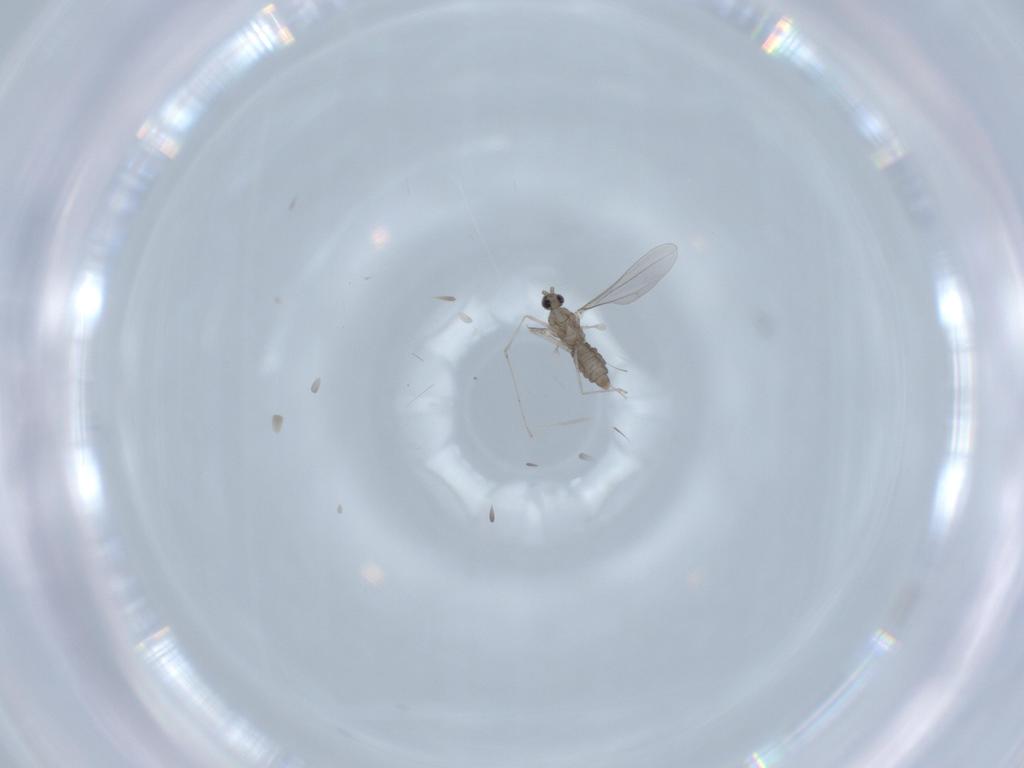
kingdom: Animalia
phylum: Arthropoda
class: Insecta
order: Diptera
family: Cecidomyiidae
